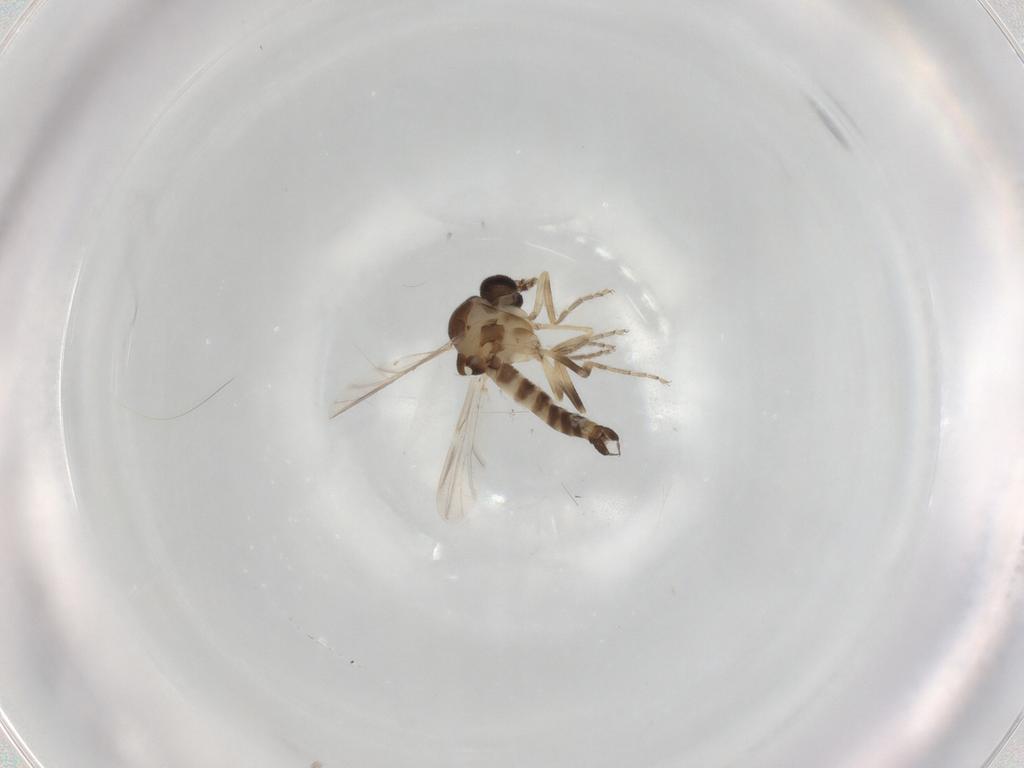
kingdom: Animalia
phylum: Arthropoda
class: Insecta
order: Diptera
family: Ceratopogonidae
